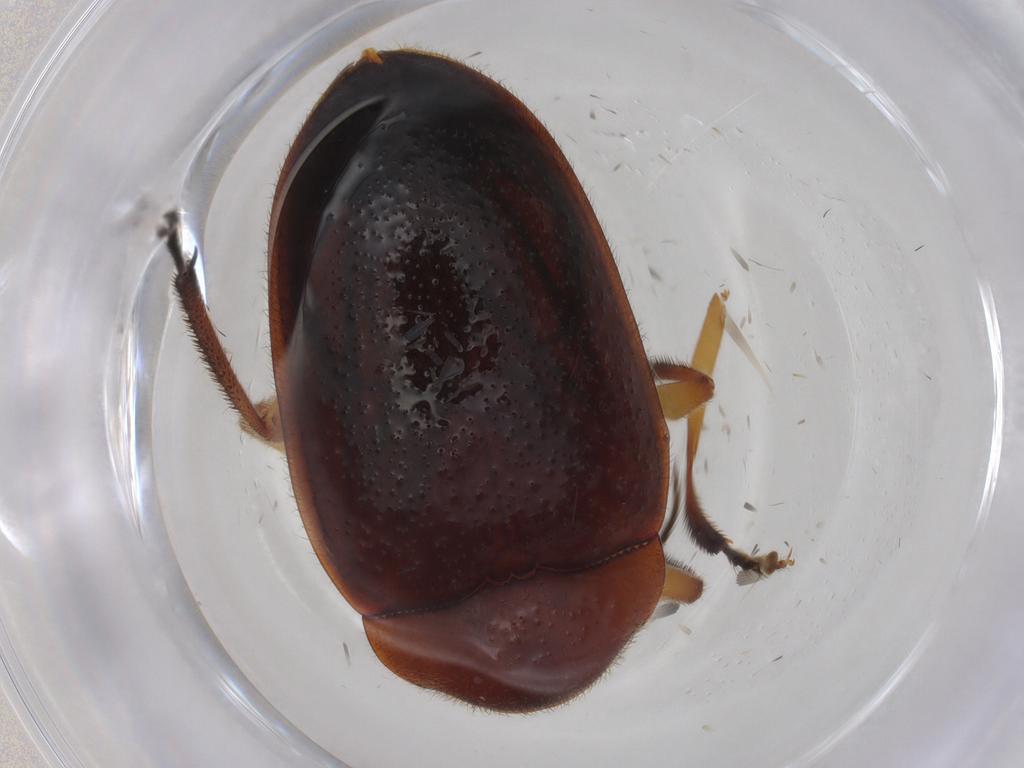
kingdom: Animalia
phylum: Arthropoda
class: Insecta
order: Coleoptera
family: Ptilodactylidae
